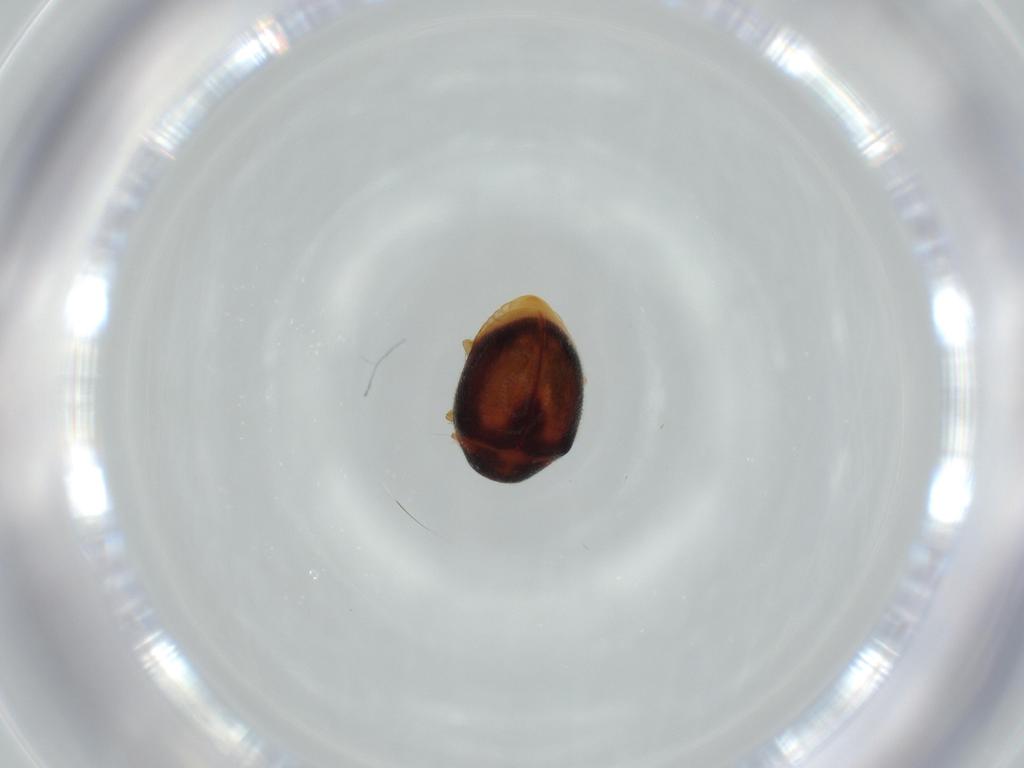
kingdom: Animalia
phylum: Arthropoda
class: Insecta
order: Coleoptera
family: Coccinellidae
